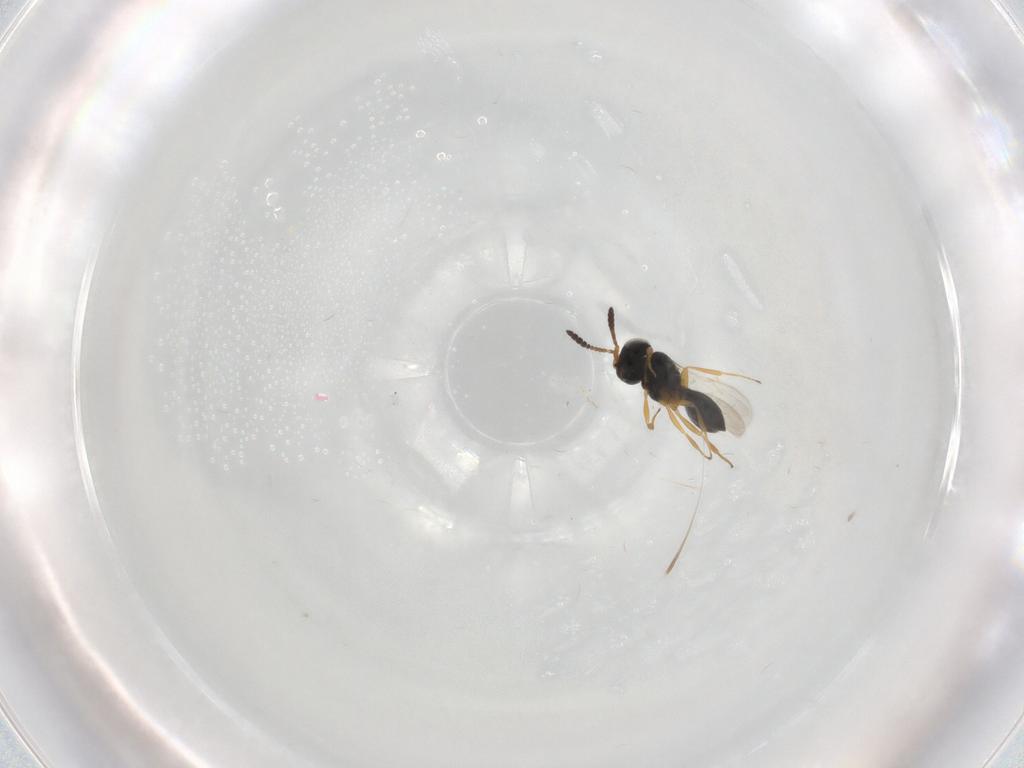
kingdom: Animalia
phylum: Arthropoda
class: Insecta
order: Hymenoptera
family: Scelionidae
